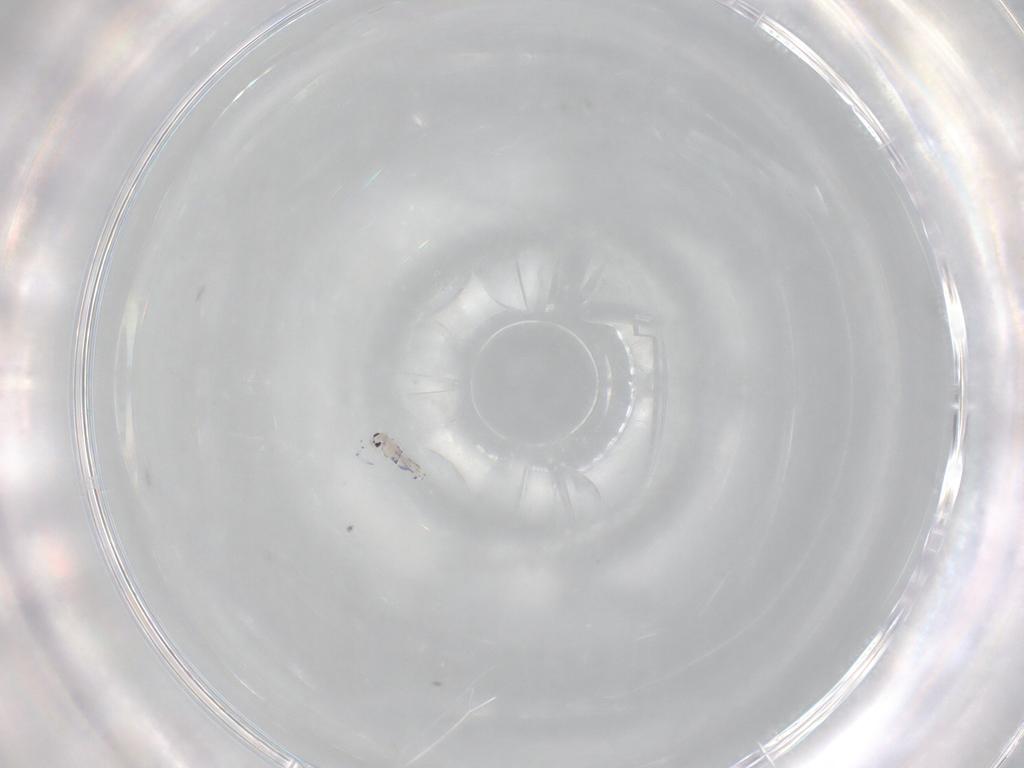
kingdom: Animalia
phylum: Arthropoda
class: Collembola
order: Entomobryomorpha
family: Entomobryidae
